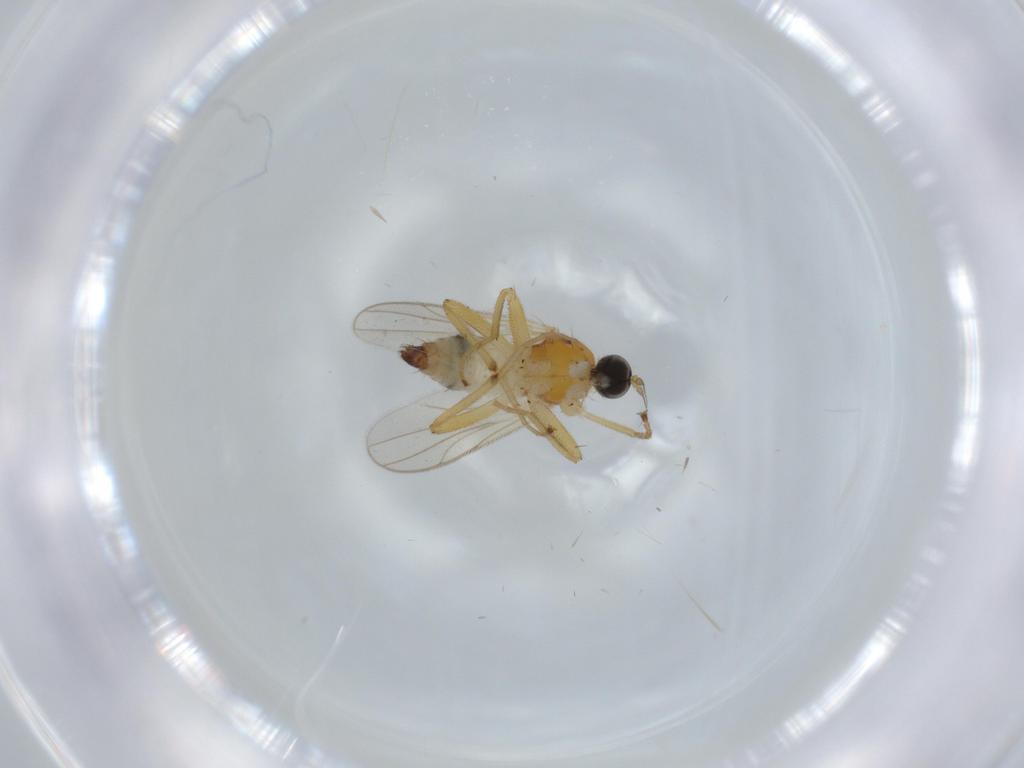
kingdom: Animalia
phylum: Arthropoda
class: Insecta
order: Diptera
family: Hybotidae
